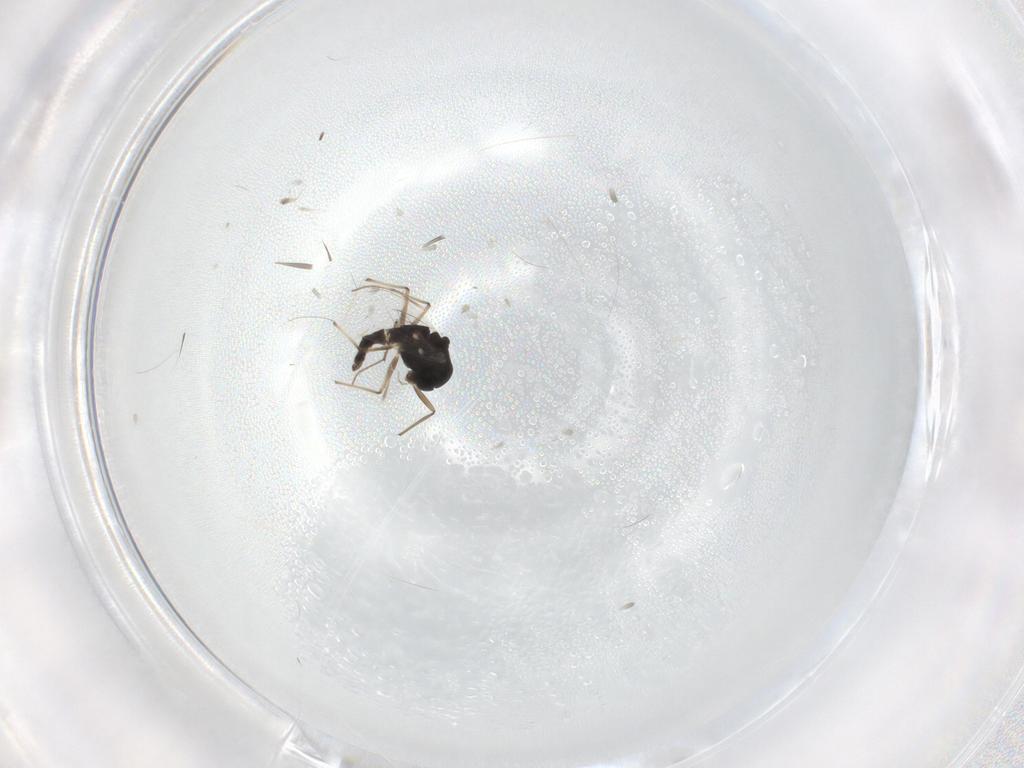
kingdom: Animalia
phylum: Arthropoda
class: Insecta
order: Diptera
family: Chironomidae
